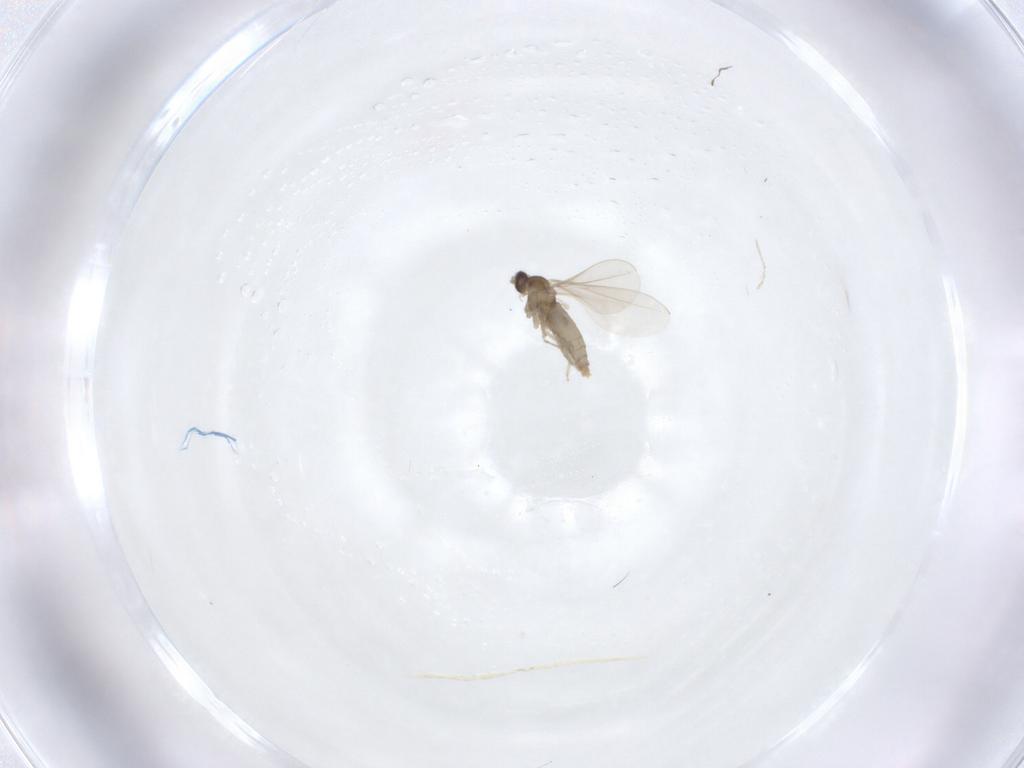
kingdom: Animalia
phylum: Arthropoda
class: Insecta
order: Diptera
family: Cecidomyiidae
